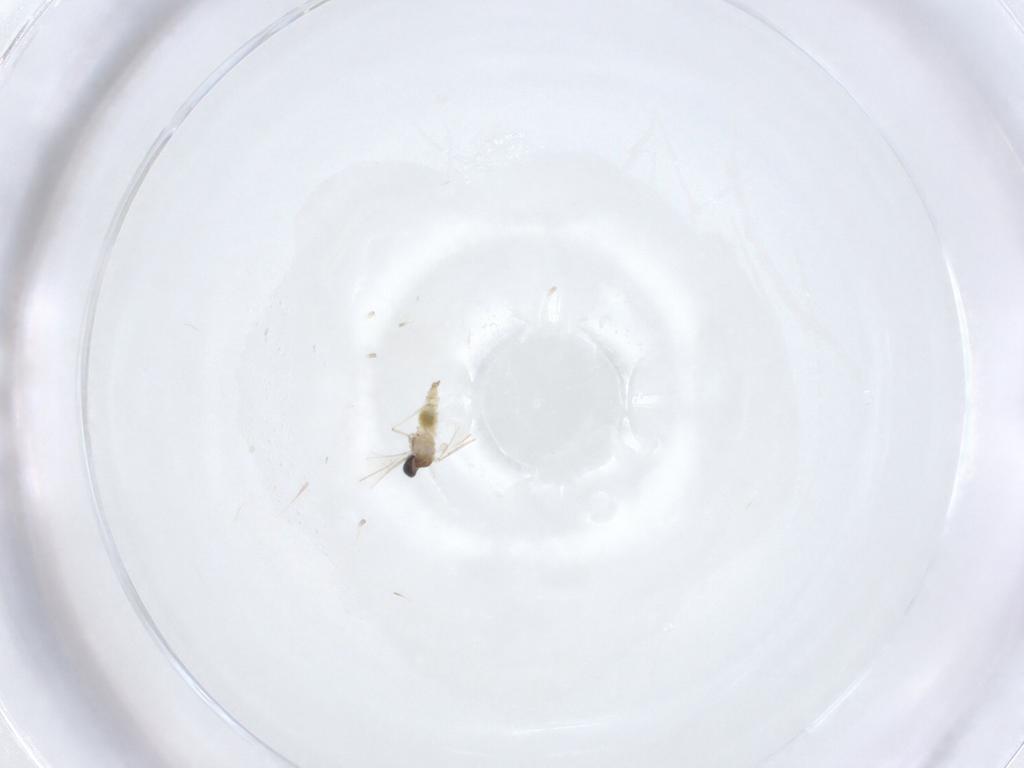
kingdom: Animalia
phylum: Arthropoda
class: Insecta
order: Diptera
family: Cecidomyiidae
